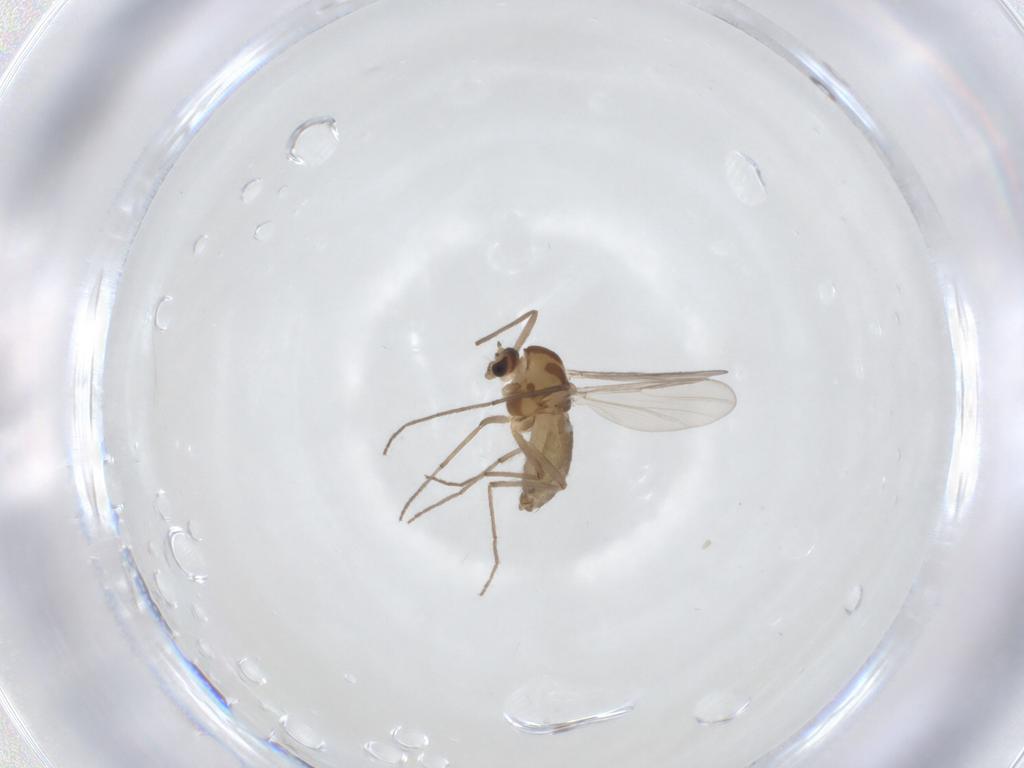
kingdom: Animalia
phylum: Arthropoda
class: Insecta
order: Diptera
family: Chironomidae
